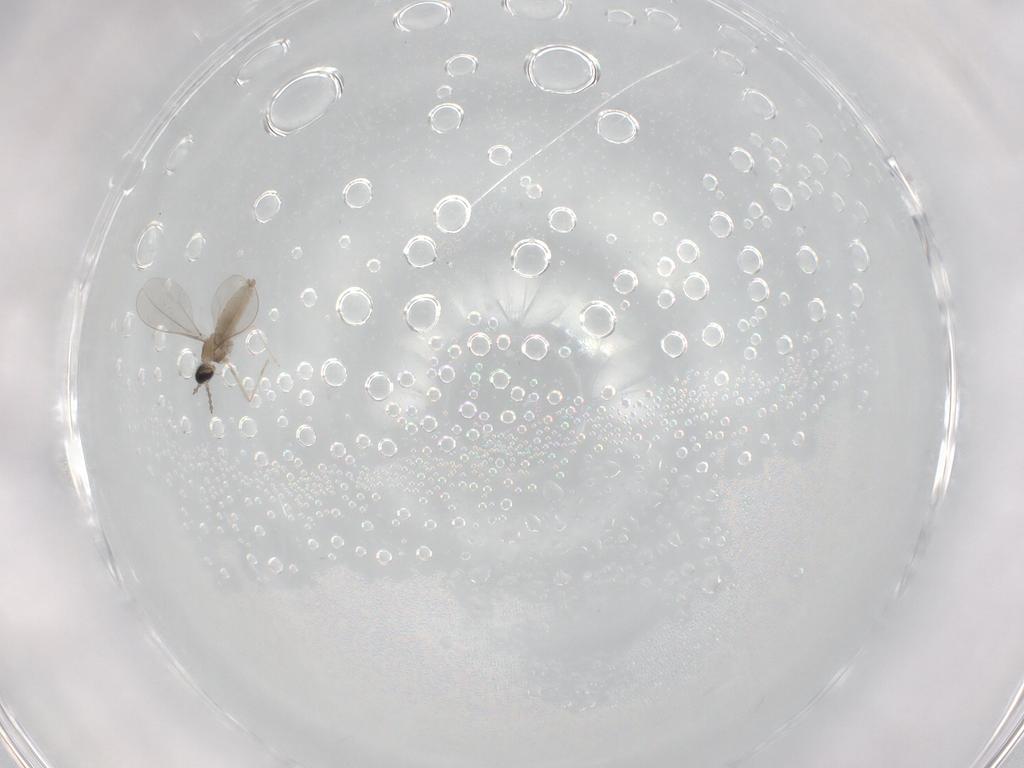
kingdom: Animalia
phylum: Arthropoda
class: Insecta
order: Diptera
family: Cecidomyiidae
